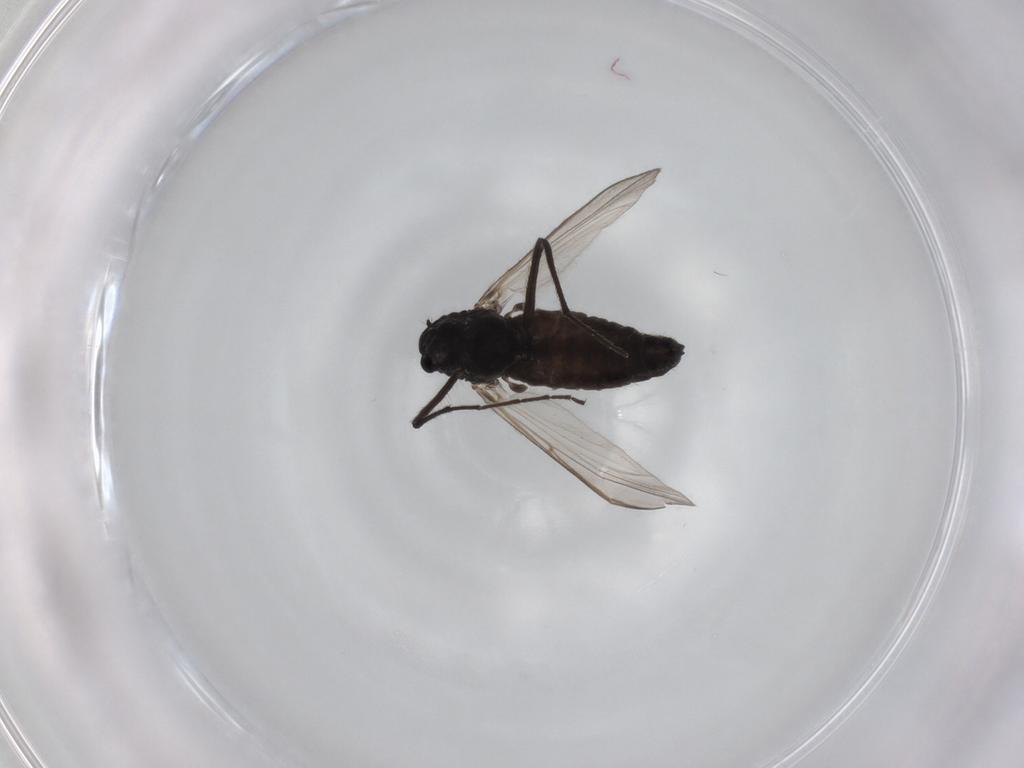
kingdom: Animalia
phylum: Arthropoda
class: Insecta
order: Diptera
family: Chironomidae
